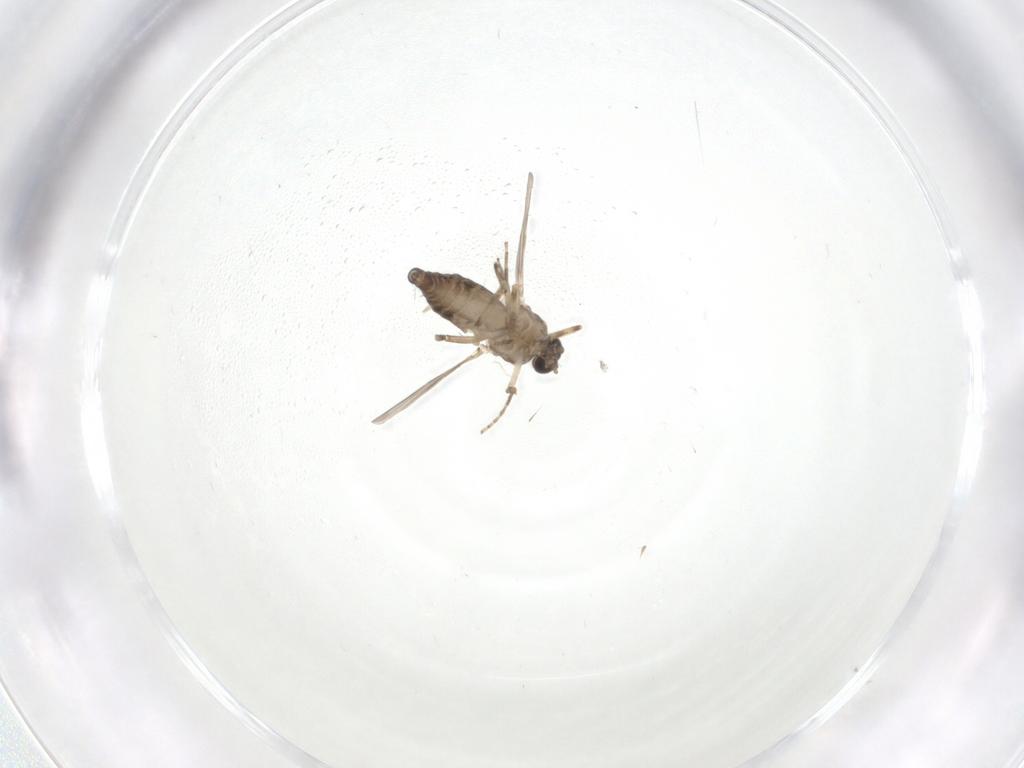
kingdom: Animalia
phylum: Arthropoda
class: Insecta
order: Diptera
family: Ceratopogonidae
